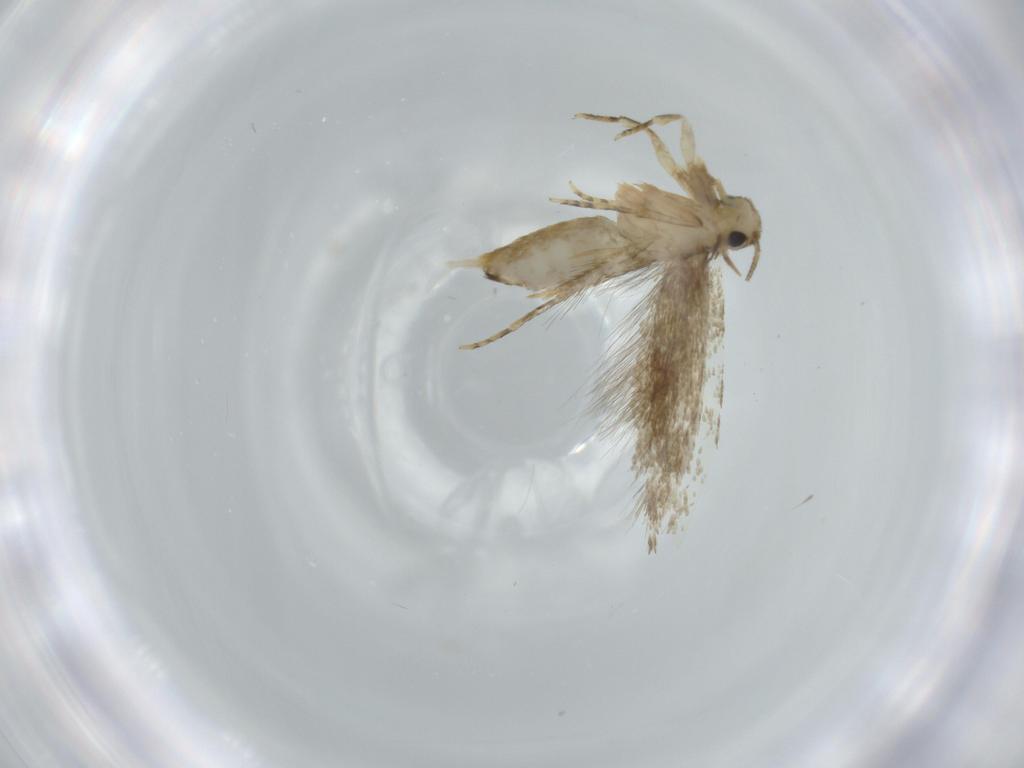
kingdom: Animalia
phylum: Arthropoda
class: Insecta
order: Lepidoptera
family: Tineidae
